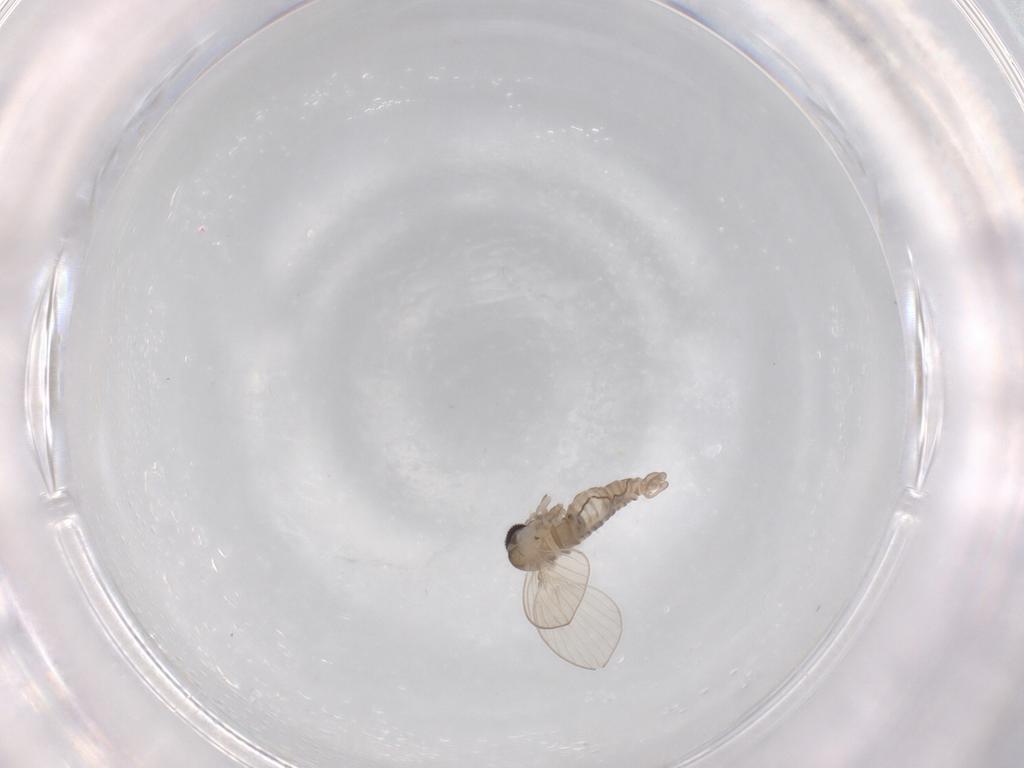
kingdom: Animalia
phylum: Arthropoda
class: Insecta
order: Diptera
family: Psychodidae
